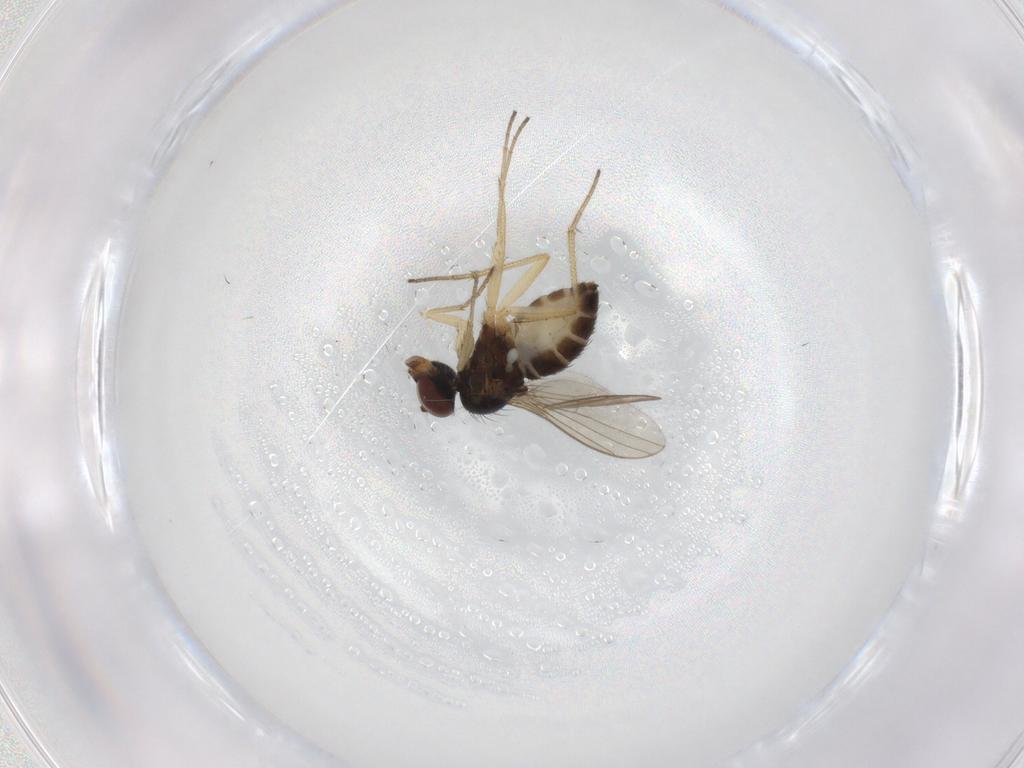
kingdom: Animalia
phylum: Arthropoda
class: Insecta
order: Diptera
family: Dolichopodidae
